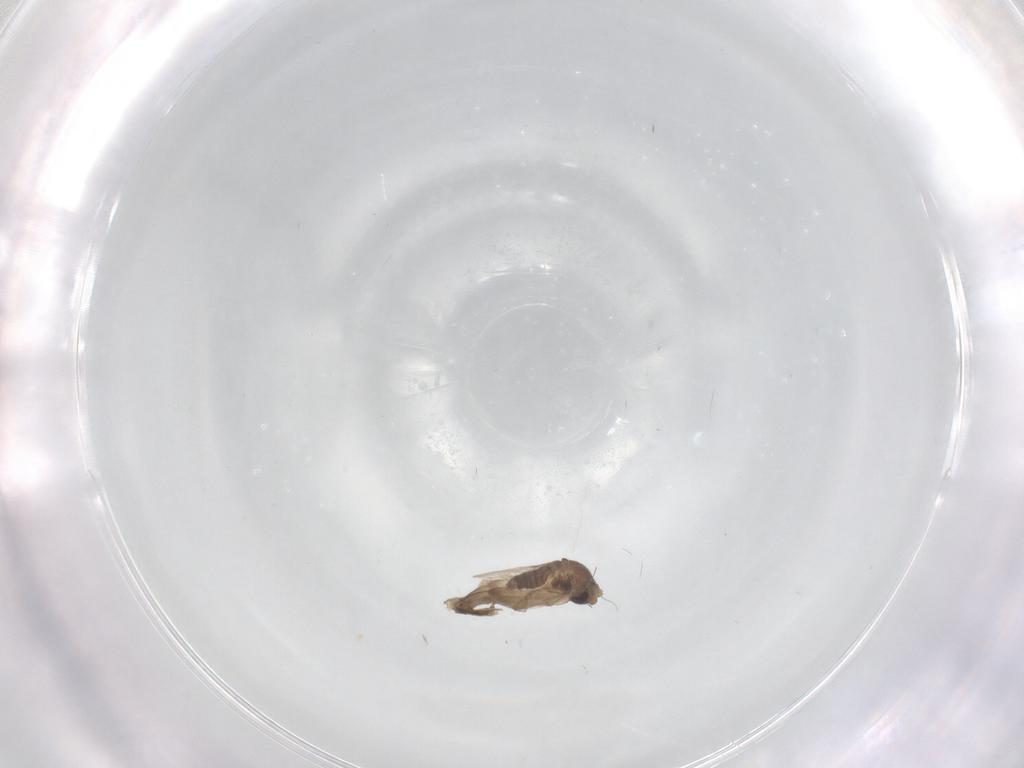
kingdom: Animalia
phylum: Arthropoda
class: Insecta
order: Diptera
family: Phoridae
